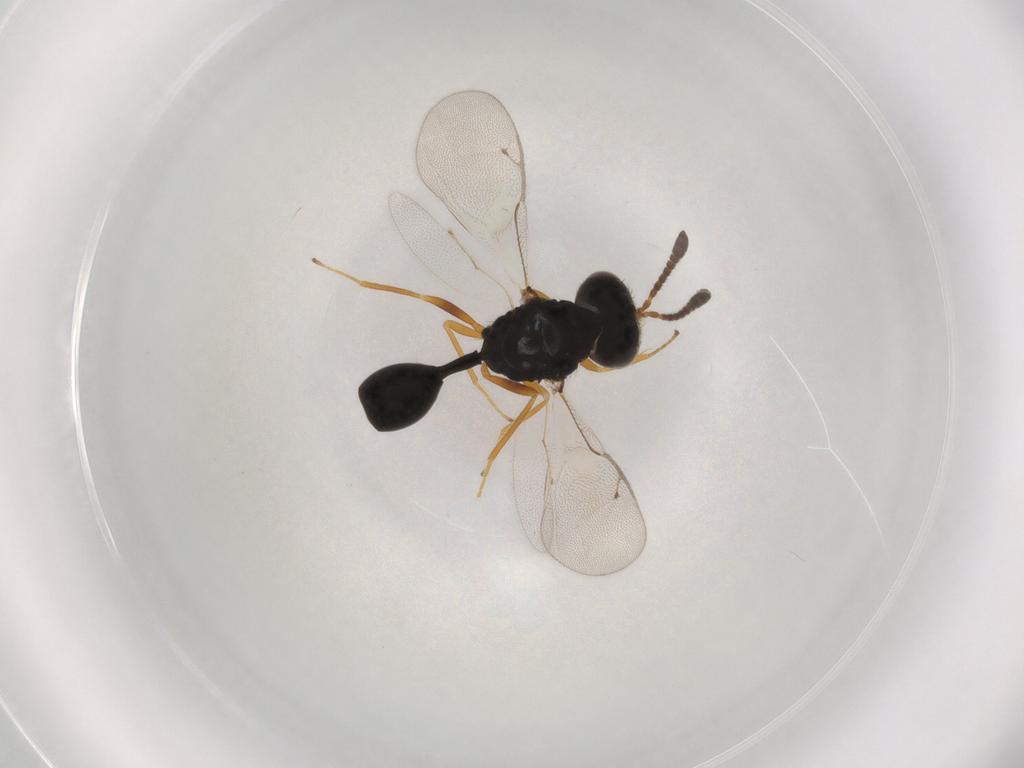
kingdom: Animalia
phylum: Arthropoda
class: Insecta
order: Hymenoptera
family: Pteromalidae
